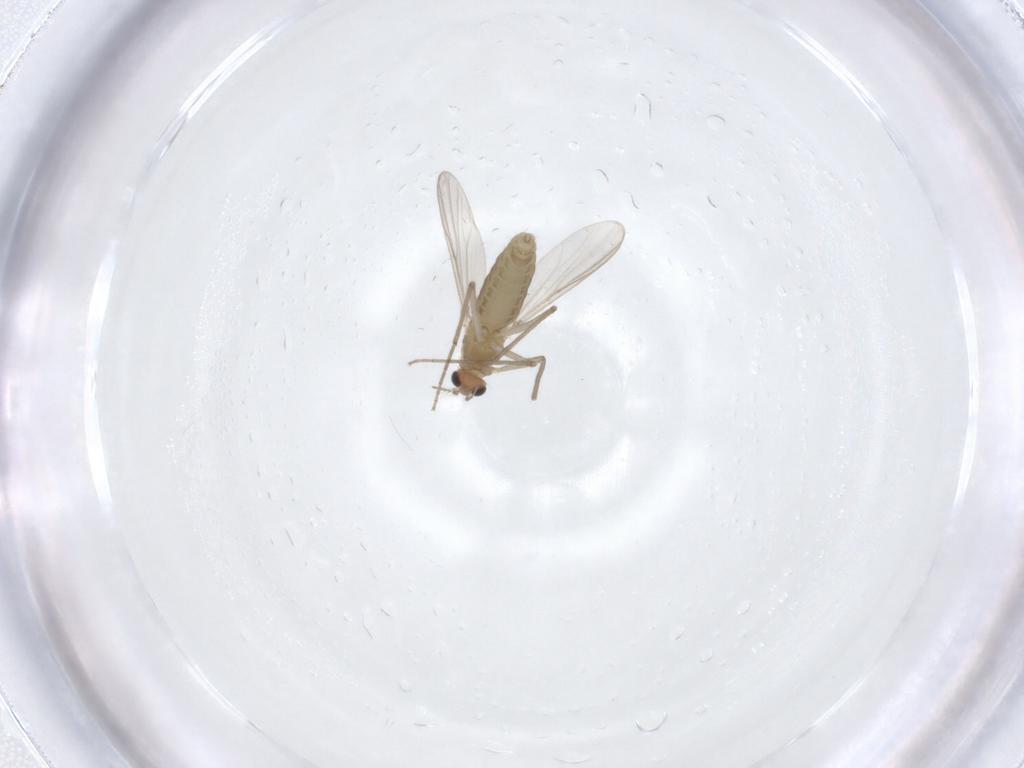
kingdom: Animalia
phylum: Arthropoda
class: Insecta
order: Diptera
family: Chironomidae
